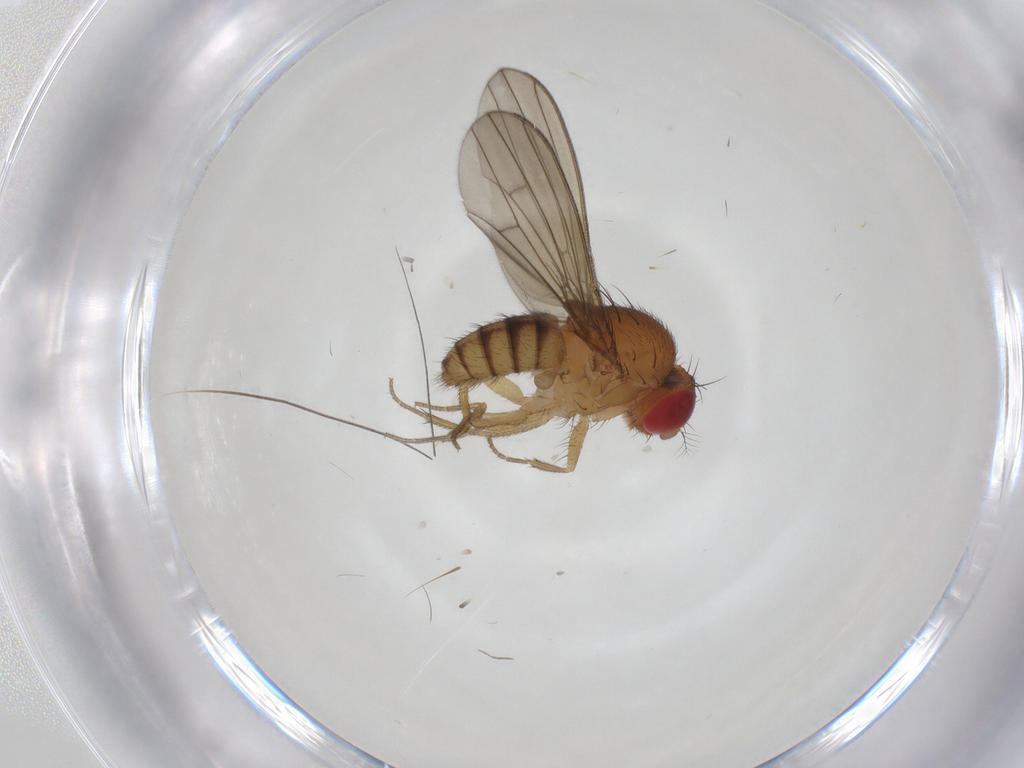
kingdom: Animalia
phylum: Arthropoda
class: Insecta
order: Diptera
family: Drosophilidae
